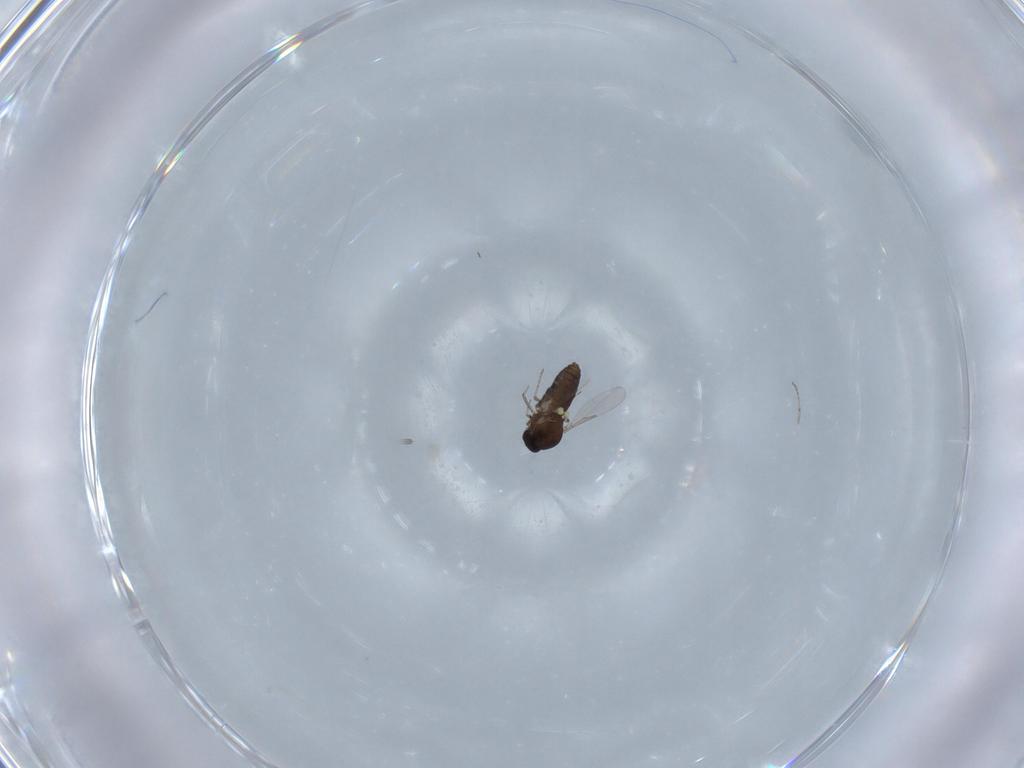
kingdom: Animalia
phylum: Arthropoda
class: Insecta
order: Diptera
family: Ceratopogonidae
